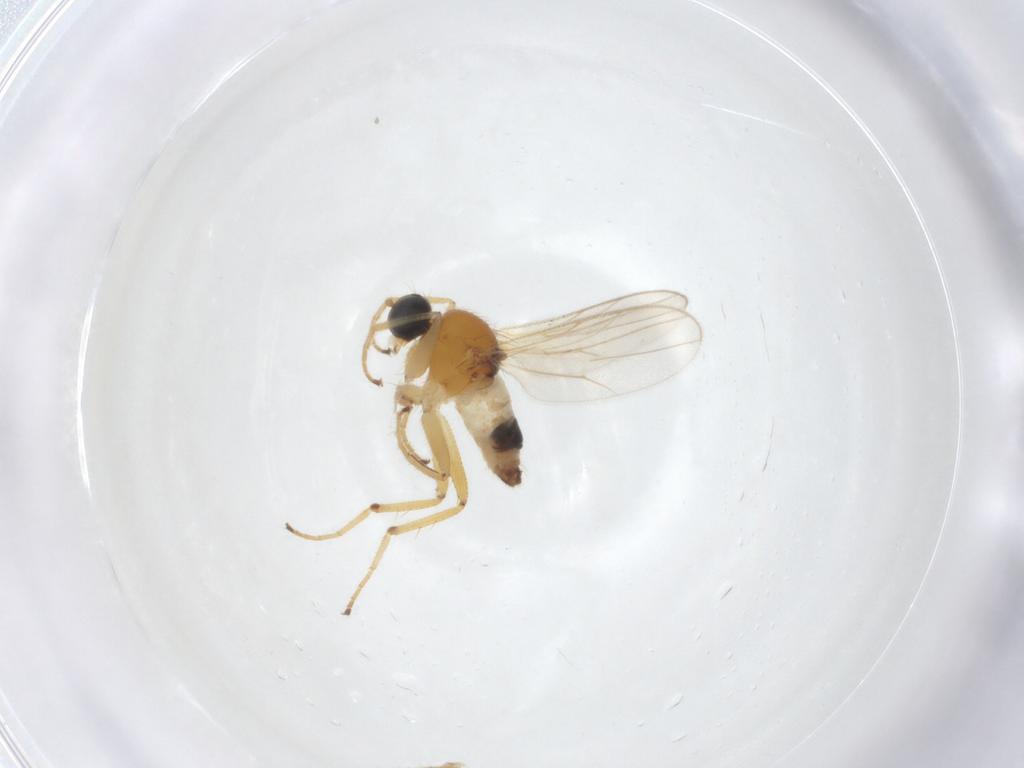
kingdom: Animalia
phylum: Arthropoda
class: Insecta
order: Diptera
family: Hybotidae
